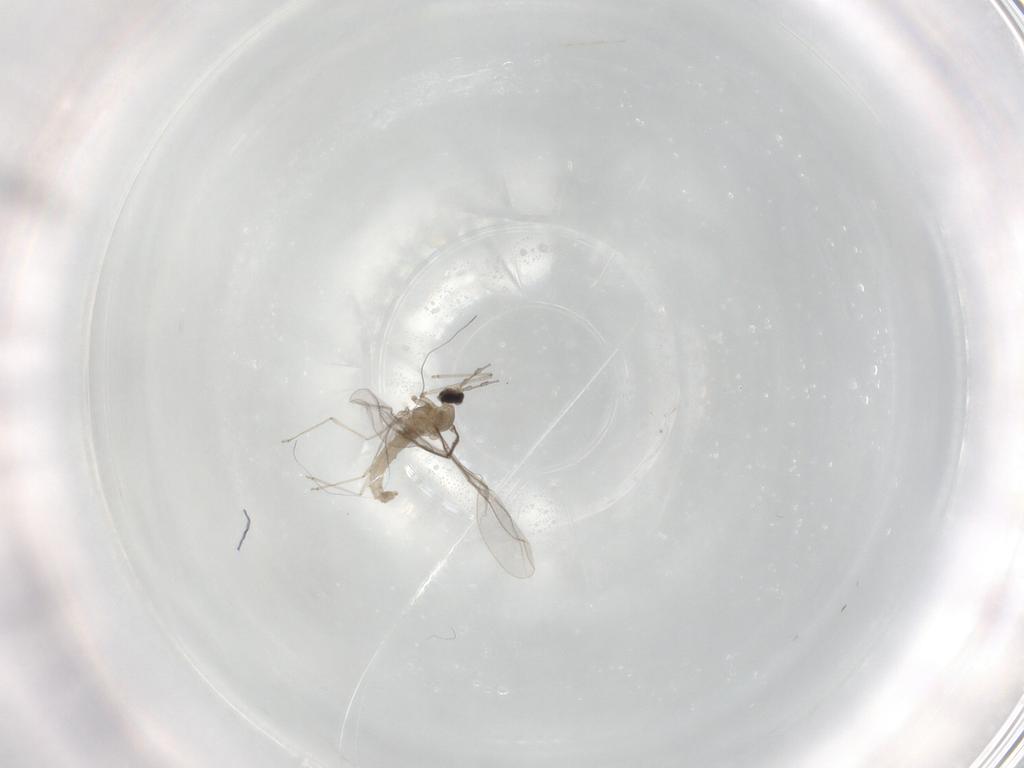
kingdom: Animalia
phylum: Arthropoda
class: Insecta
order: Diptera
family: Cecidomyiidae
